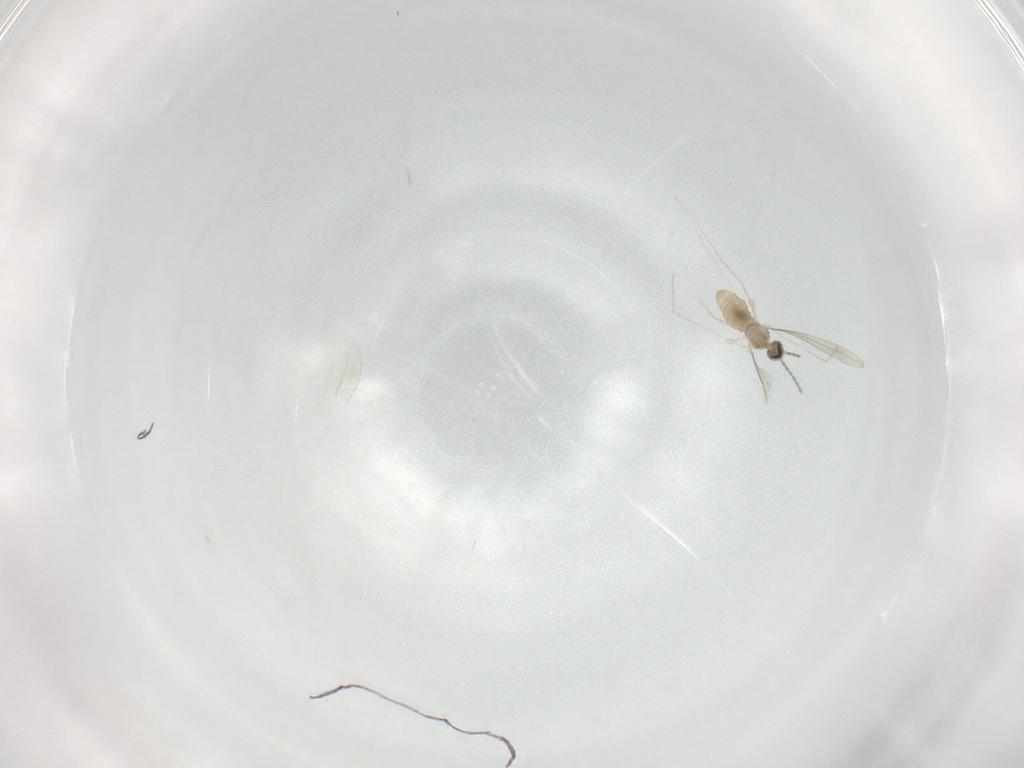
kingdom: Animalia
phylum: Arthropoda
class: Insecta
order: Diptera
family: Cecidomyiidae
